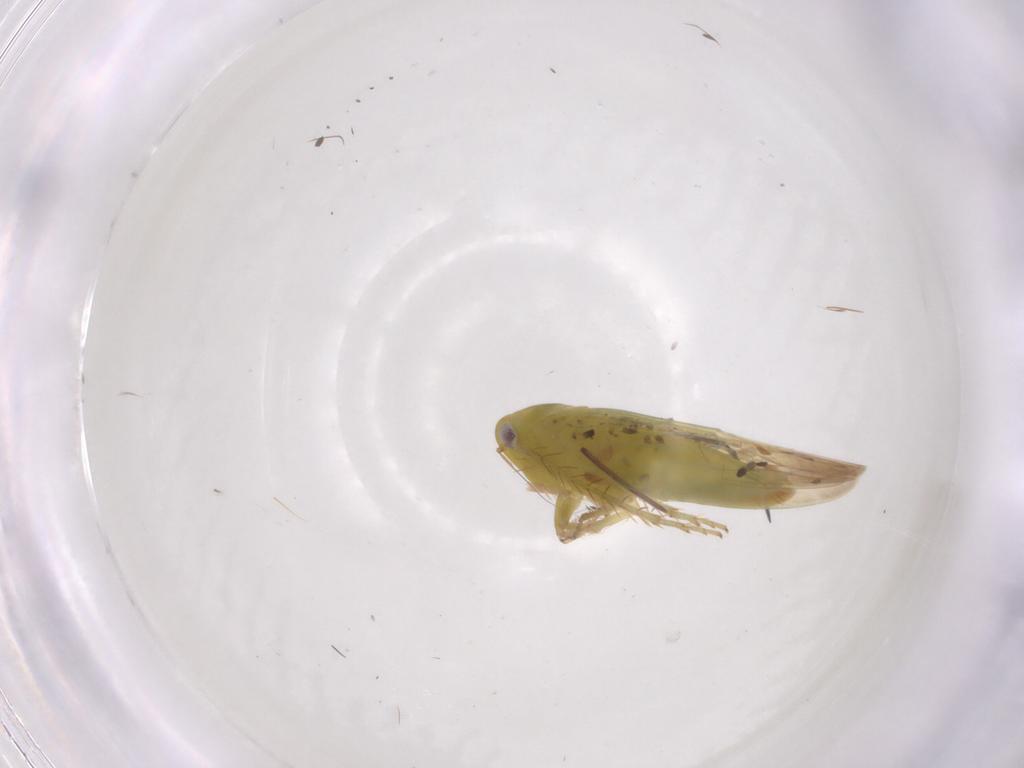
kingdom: Animalia
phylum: Arthropoda
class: Insecta
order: Hemiptera
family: Cicadellidae
